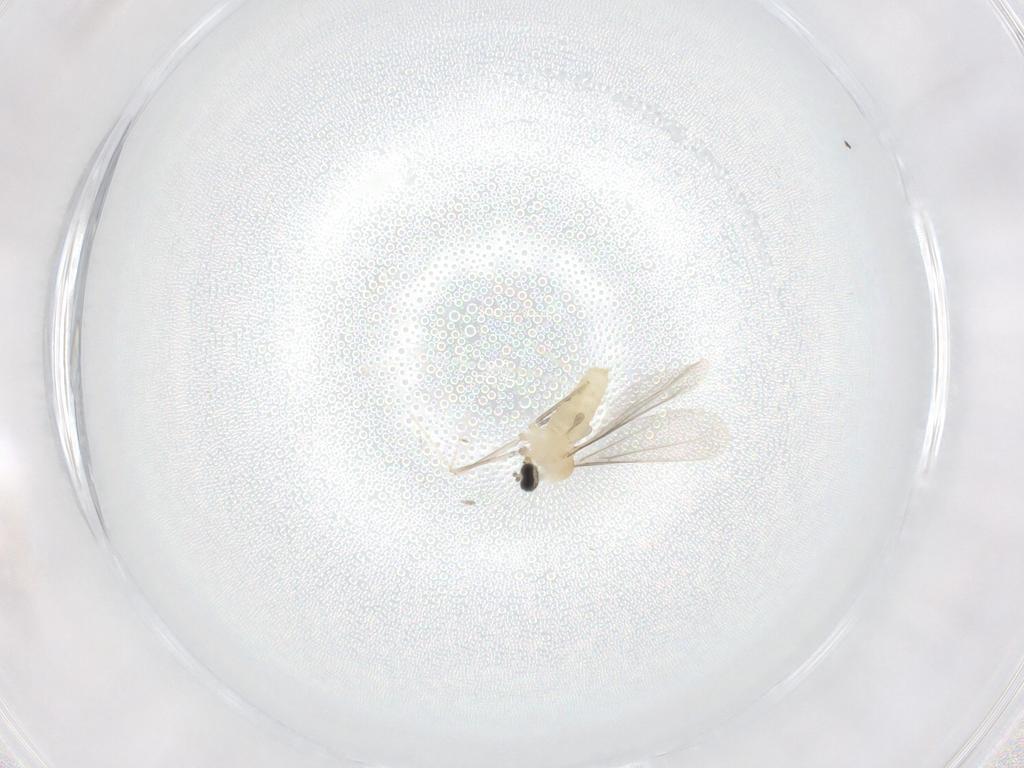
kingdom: Animalia
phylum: Arthropoda
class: Insecta
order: Diptera
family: Cecidomyiidae
